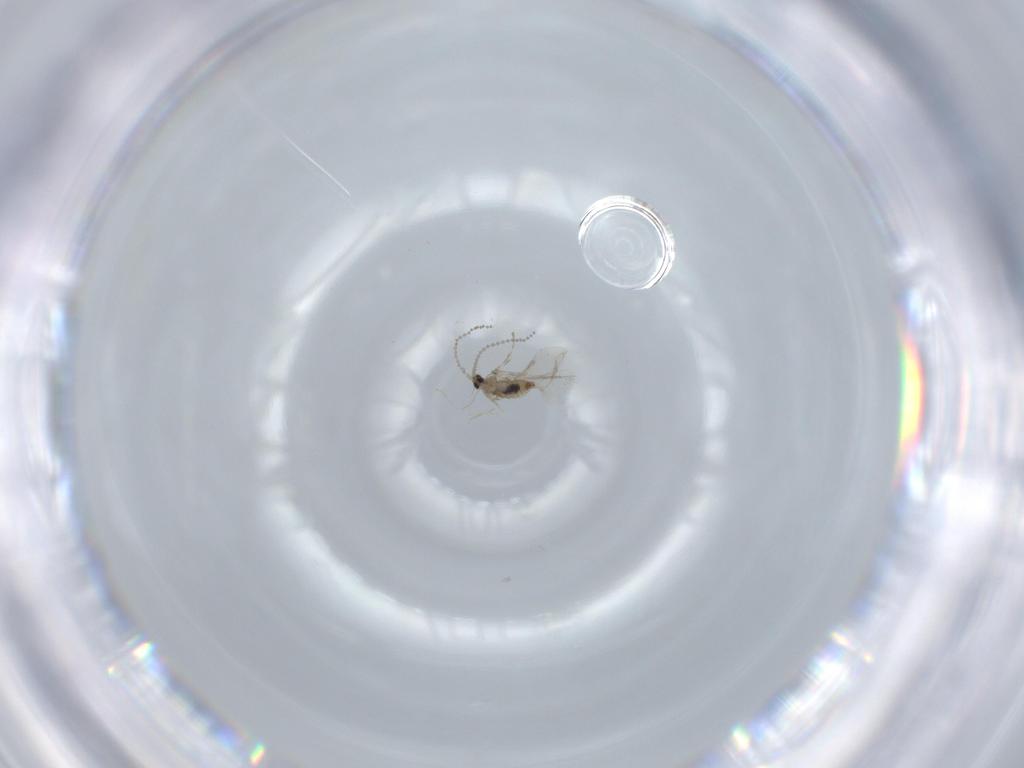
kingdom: Animalia
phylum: Arthropoda
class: Insecta
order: Diptera
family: Cecidomyiidae
